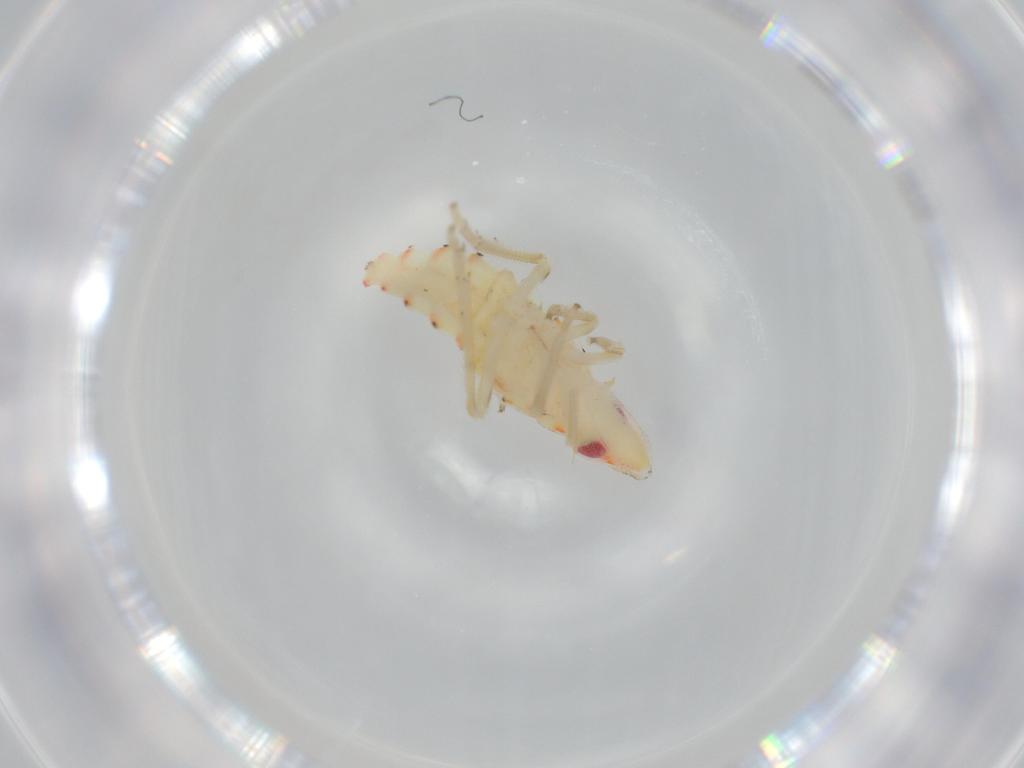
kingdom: Animalia
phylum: Arthropoda
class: Insecta
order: Hemiptera
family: Tropiduchidae
